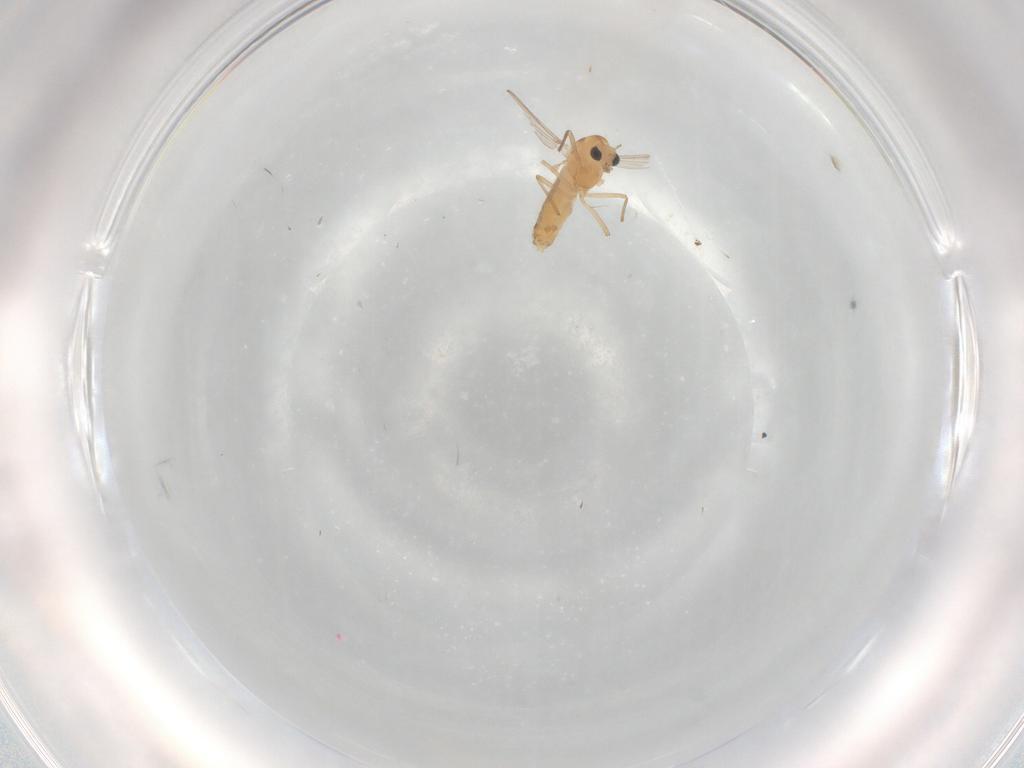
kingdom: Animalia
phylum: Arthropoda
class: Insecta
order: Diptera
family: Chironomidae
